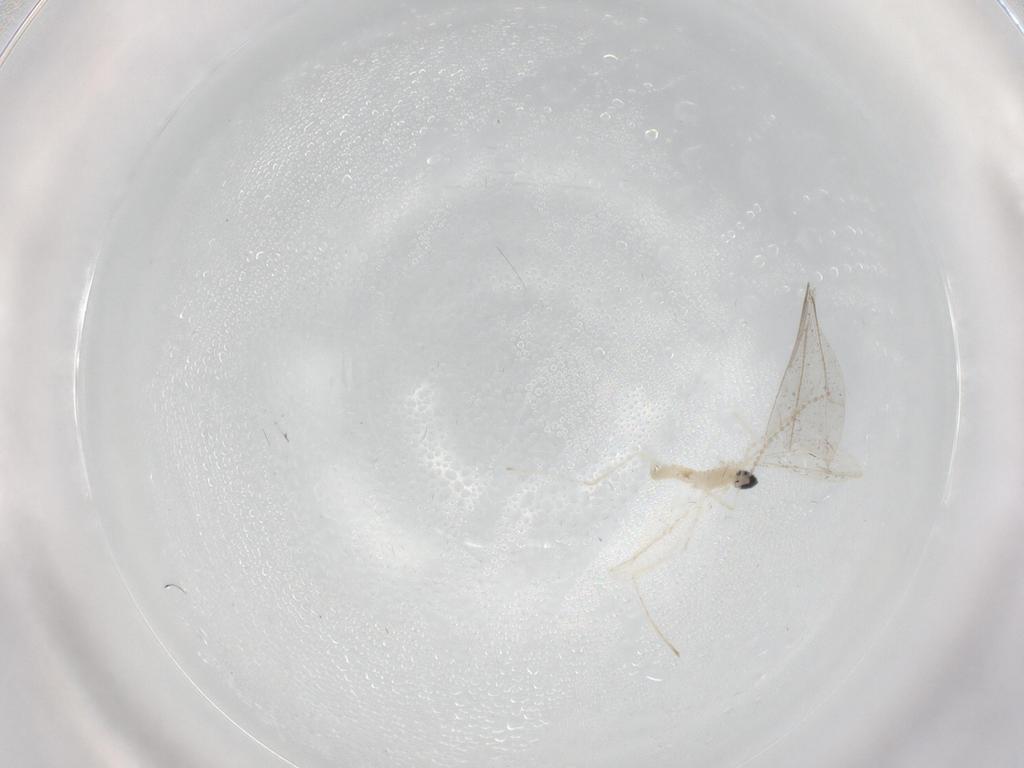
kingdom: Animalia
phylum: Arthropoda
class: Insecta
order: Diptera
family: Cecidomyiidae
